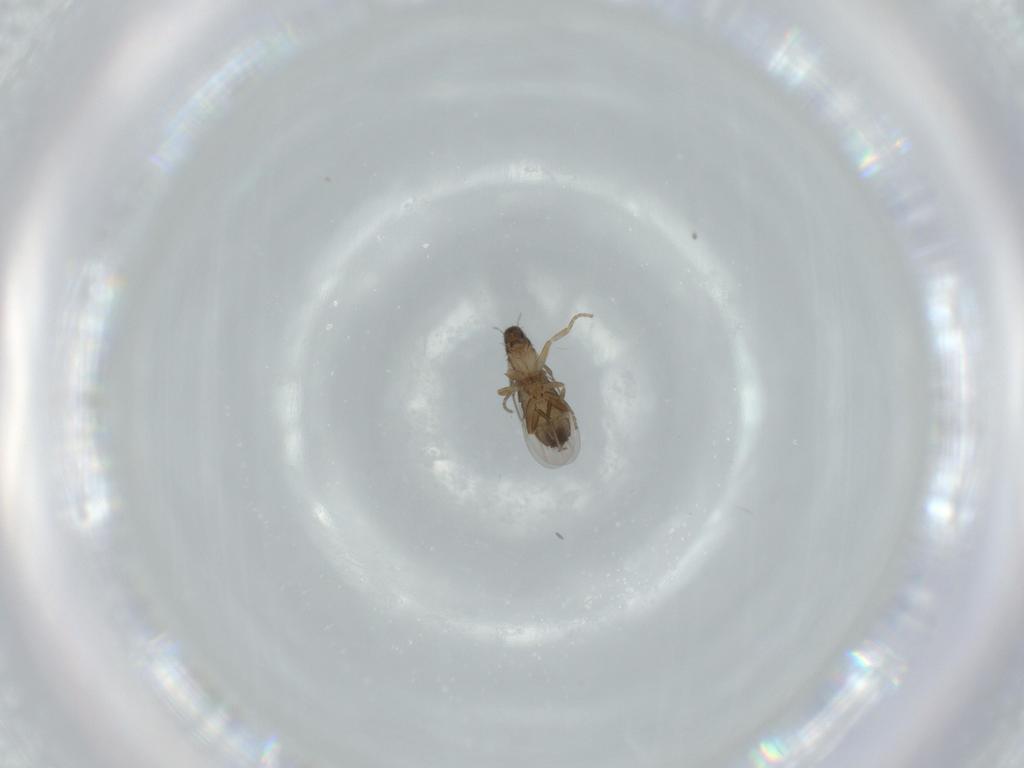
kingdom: Animalia
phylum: Arthropoda
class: Insecta
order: Diptera
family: Phoridae
